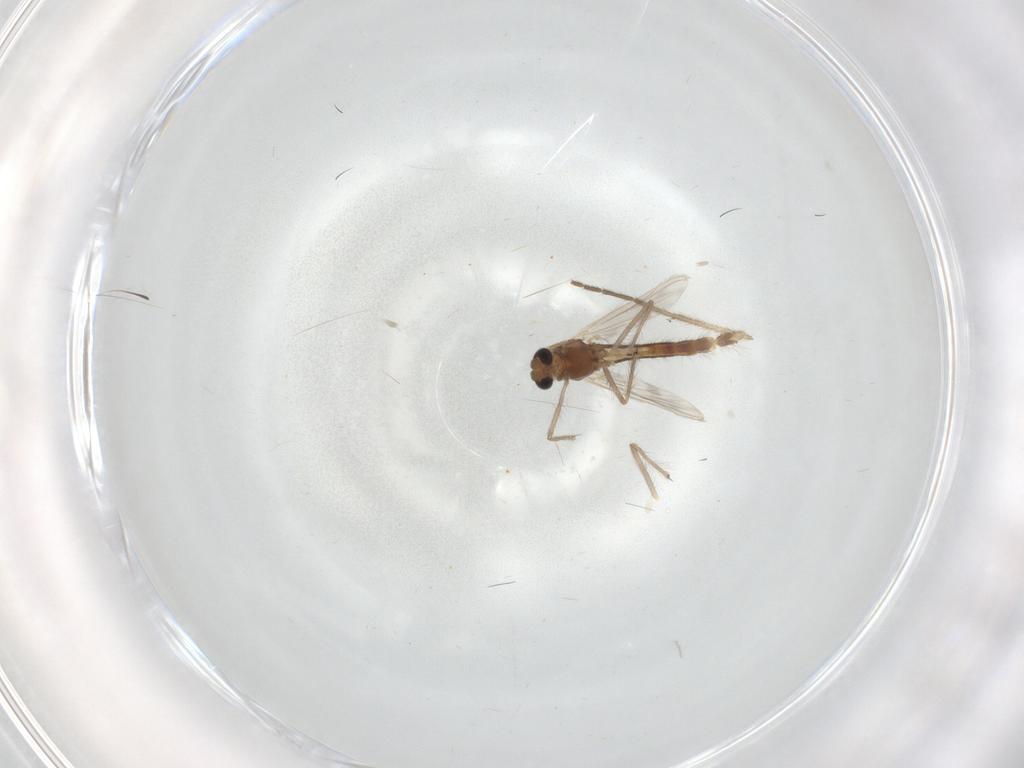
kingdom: Animalia
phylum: Arthropoda
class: Insecta
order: Diptera
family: Chironomidae
